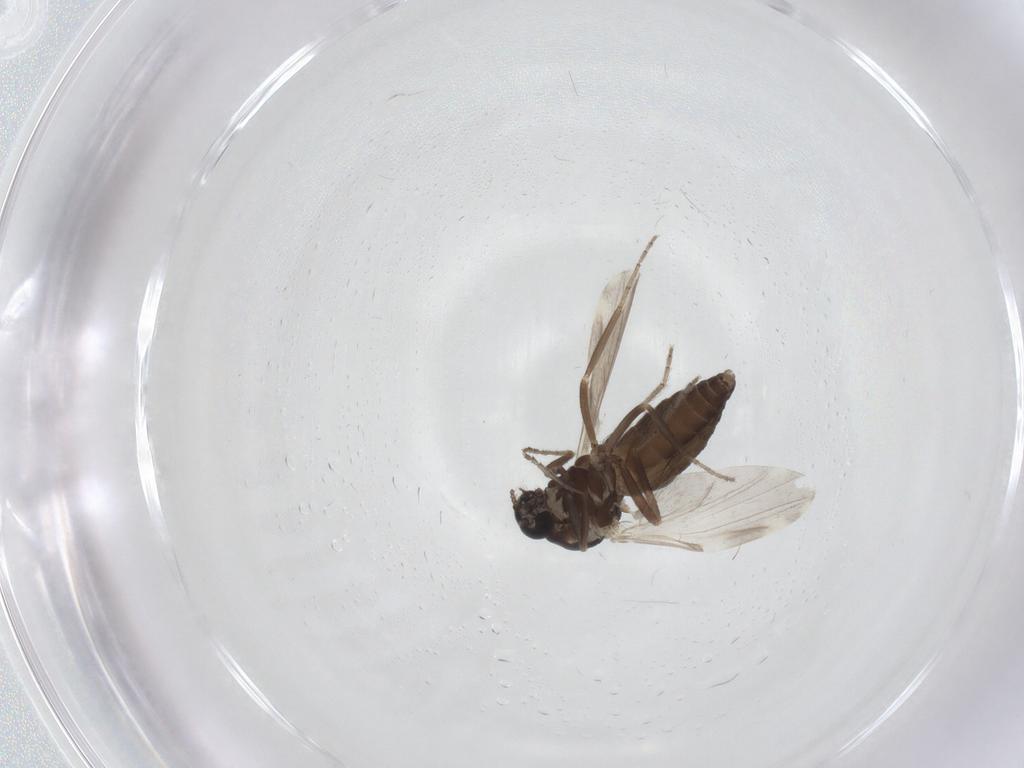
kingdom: Animalia
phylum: Arthropoda
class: Insecta
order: Diptera
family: Ceratopogonidae
